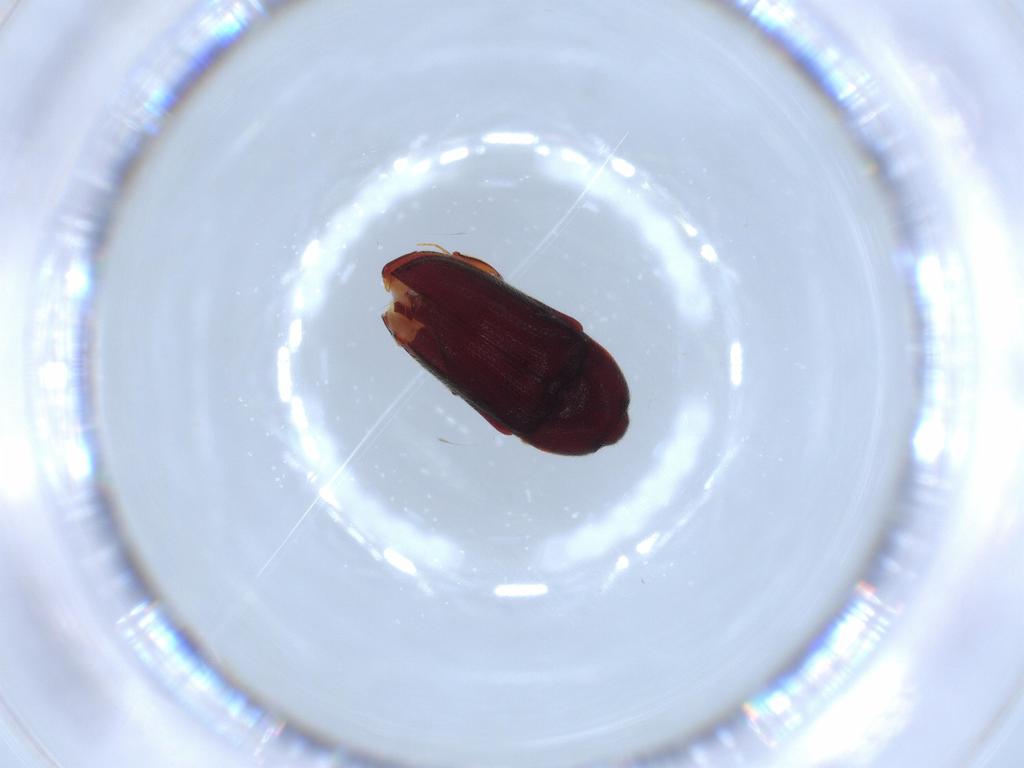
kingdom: Animalia
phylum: Arthropoda
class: Insecta
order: Coleoptera
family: Throscidae
